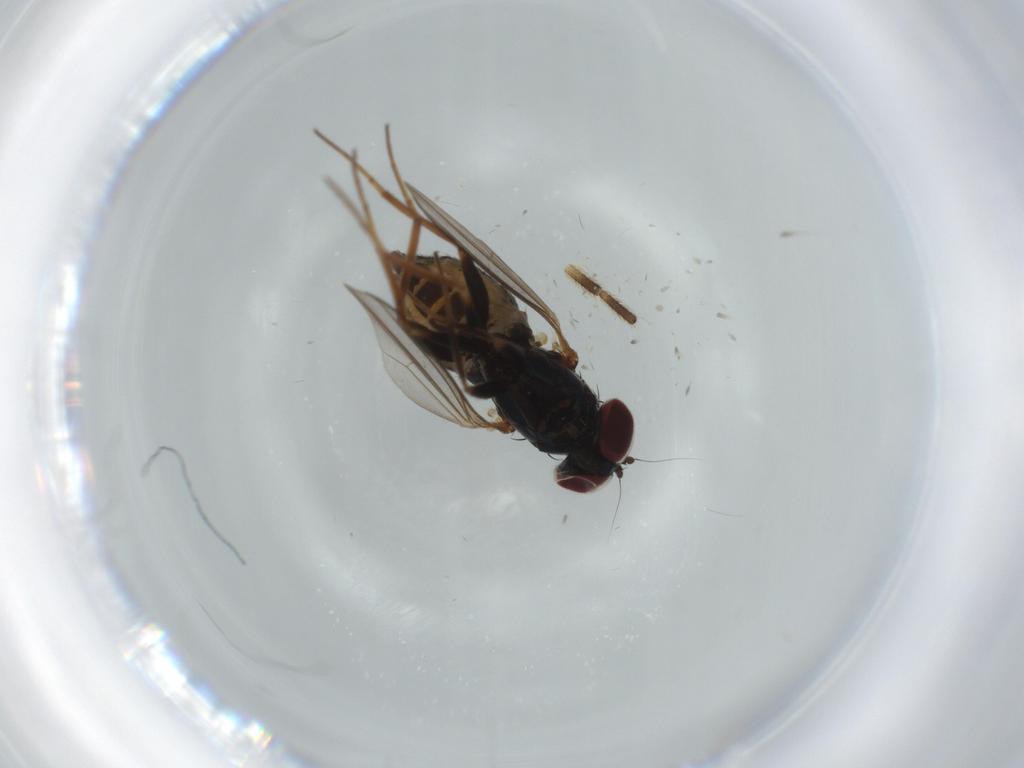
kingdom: Animalia
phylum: Arthropoda
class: Insecta
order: Diptera
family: Dolichopodidae
